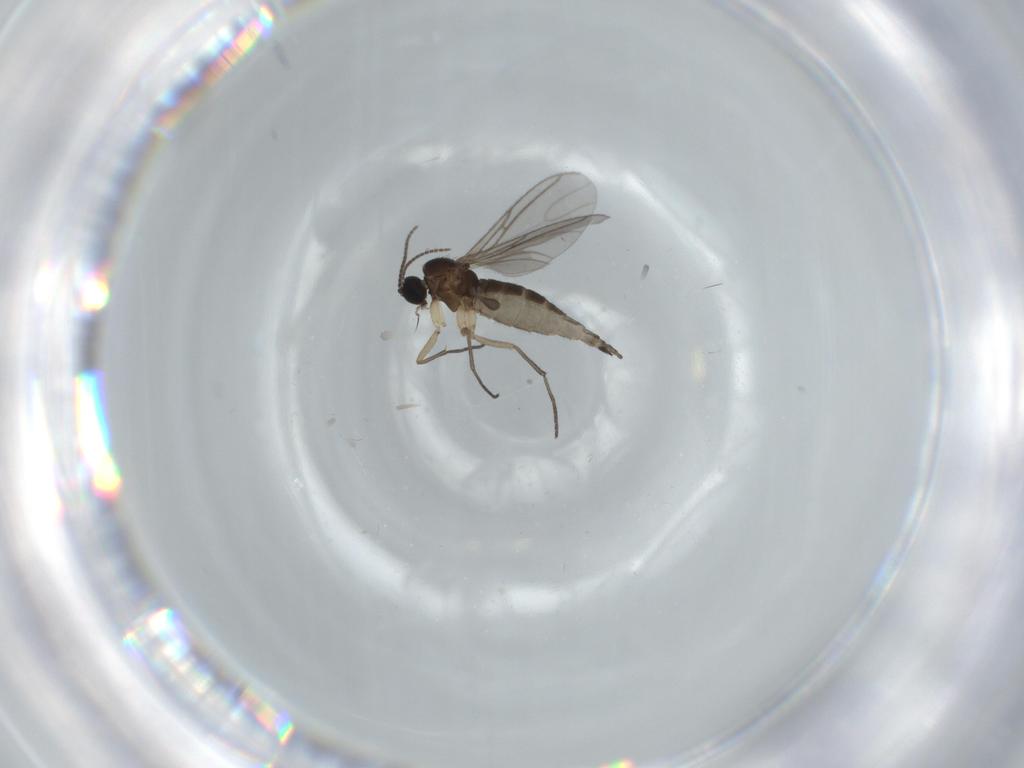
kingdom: Animalia
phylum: Arthropoda
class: Insecta
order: Diptera
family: Sciaridae
